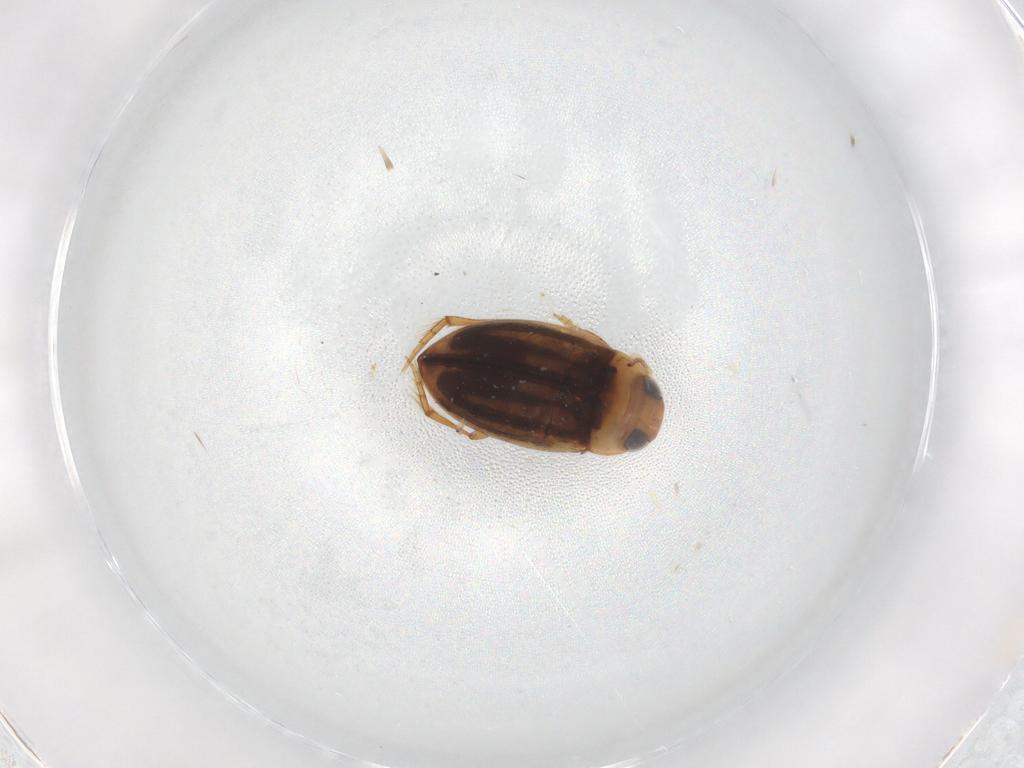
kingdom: Animalia
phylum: Arthropoda
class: Insecta
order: Coleoptera
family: Dytiscidae
